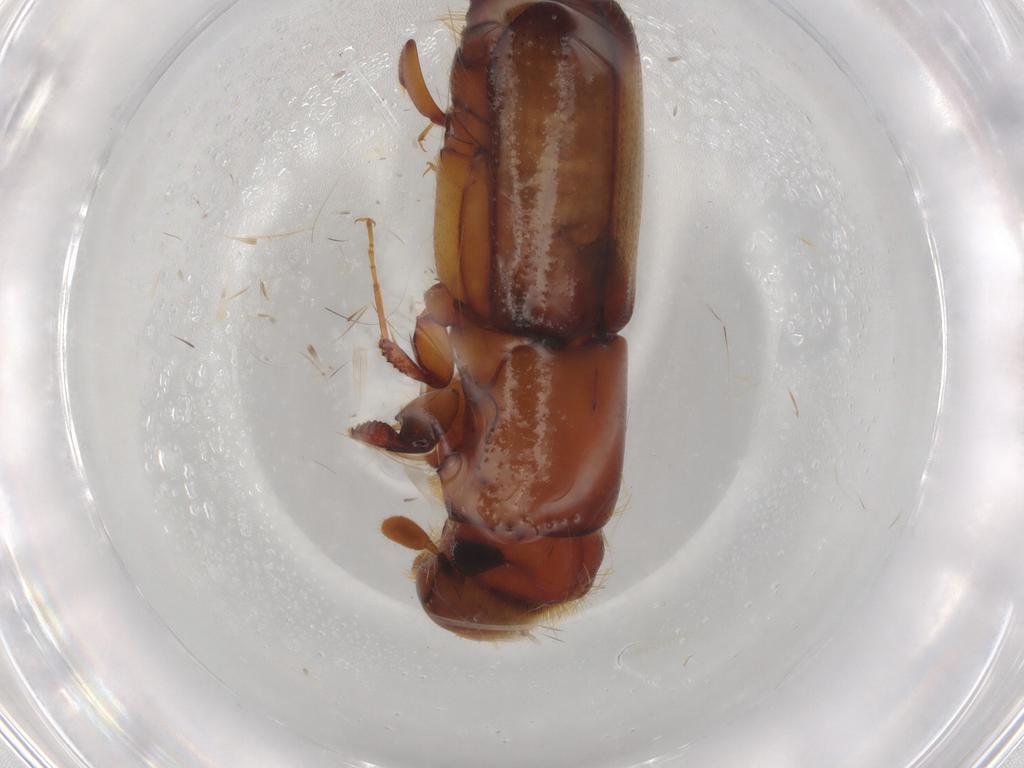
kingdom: Animalia
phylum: Arthropoda
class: Insecta
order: Coleoptera
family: Curculionidae
